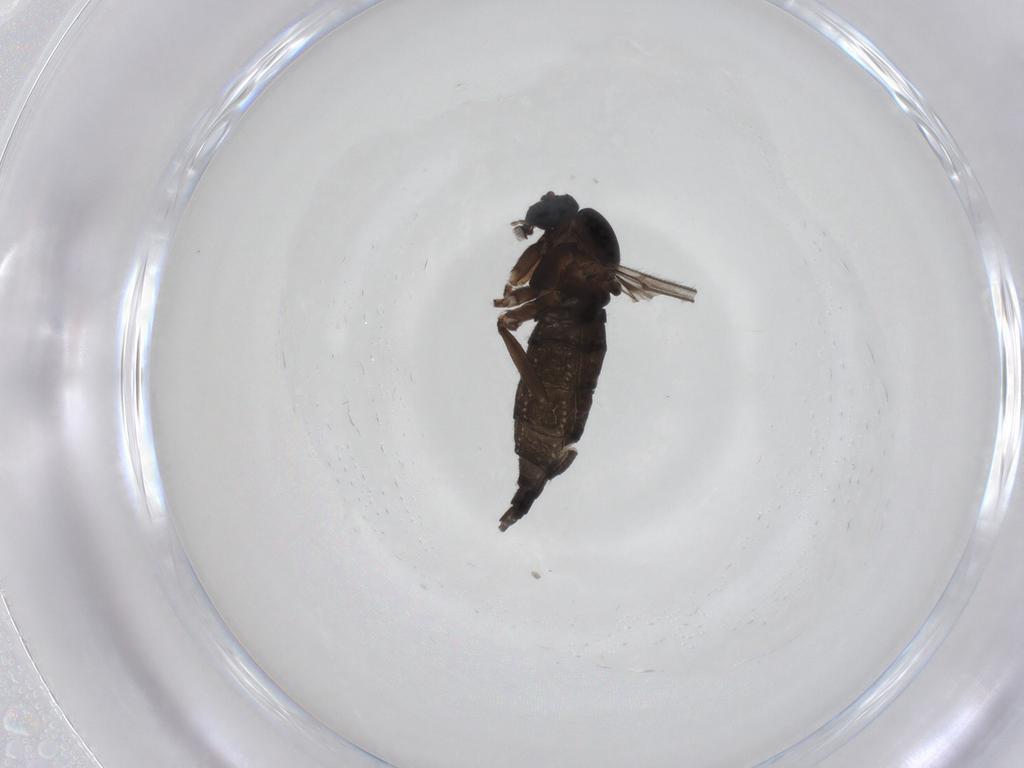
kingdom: Animalia
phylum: Arthropoda
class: Insecta
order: Diptera
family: Sciaridae
